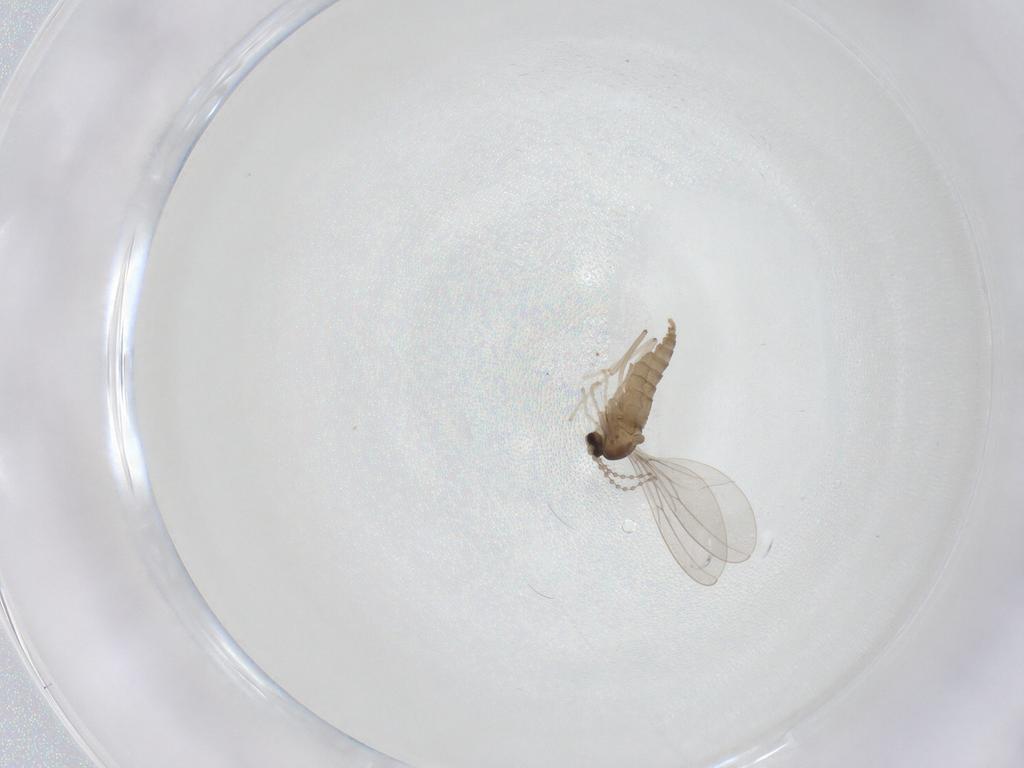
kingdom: Animalia
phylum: Arthropoda
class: Insecta
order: Diptera
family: Cecidomyiidae
